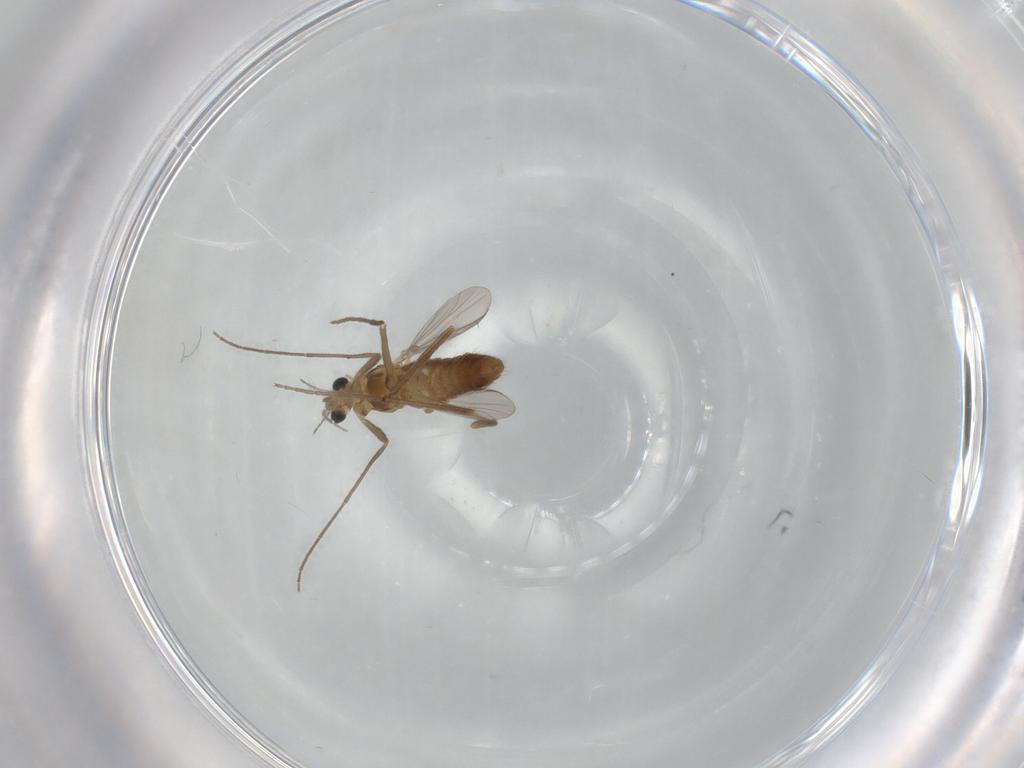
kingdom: Animalia
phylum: Arthropoda
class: Insecta
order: Diptera
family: Chironomidae
